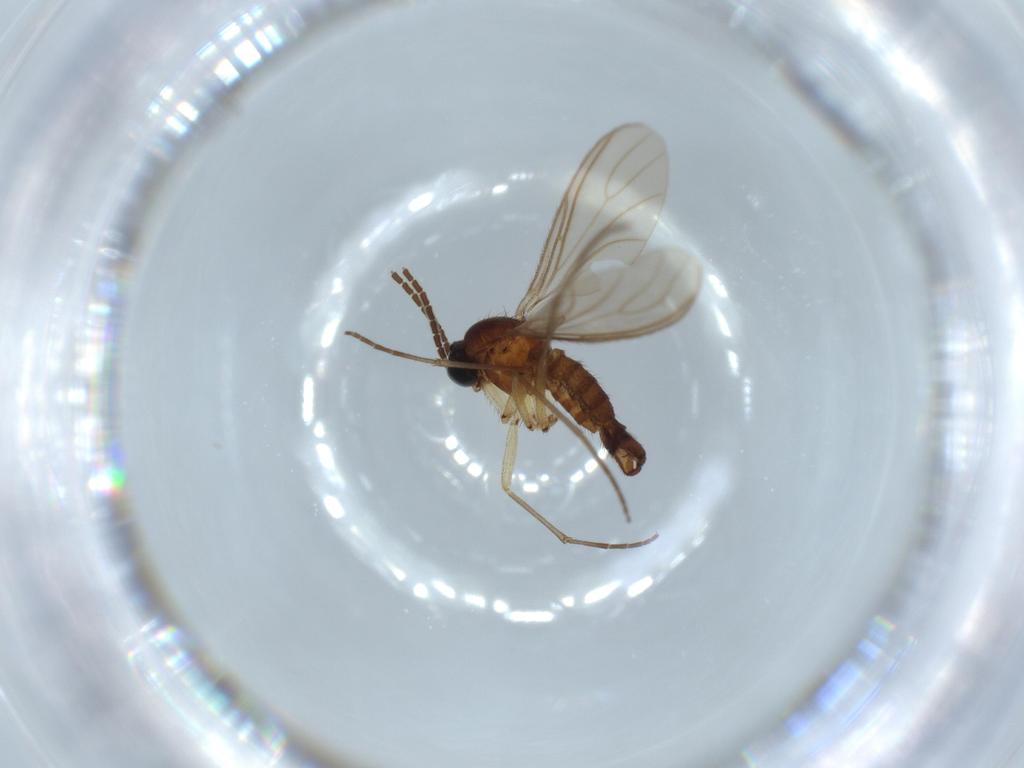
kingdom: Animalia
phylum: Arthropoda
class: Insecta
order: Diptera
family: Sciaridae
